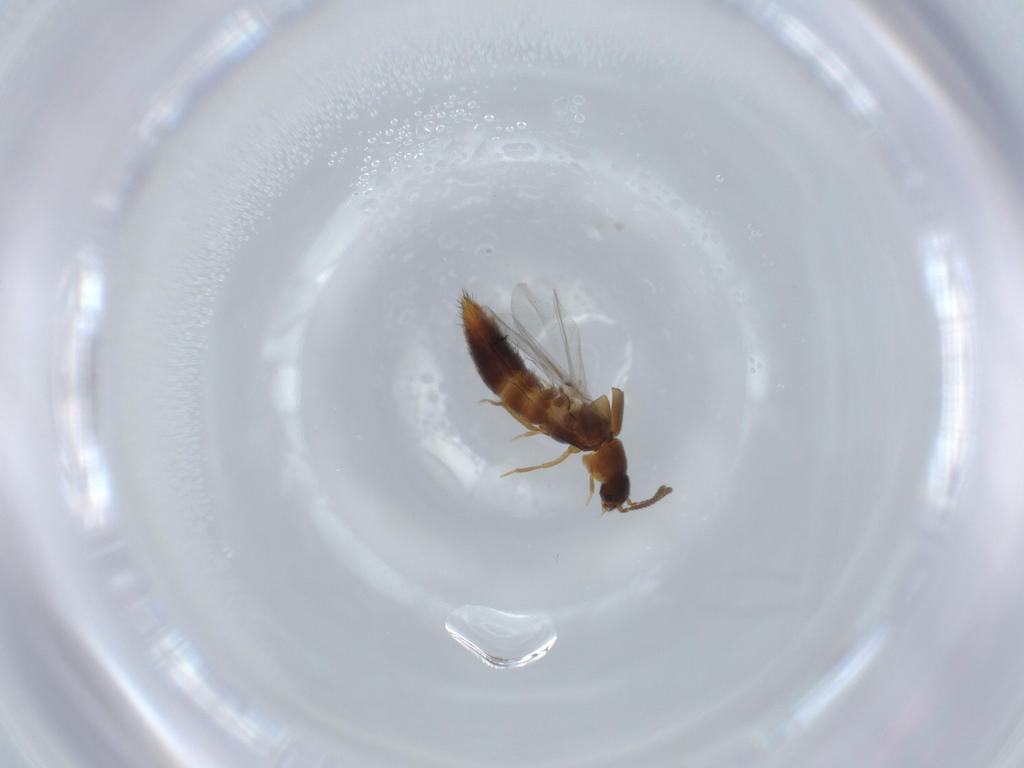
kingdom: Animalia
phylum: Arthropoda
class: Insecta
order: Coleoptera
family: Staphylinidae
